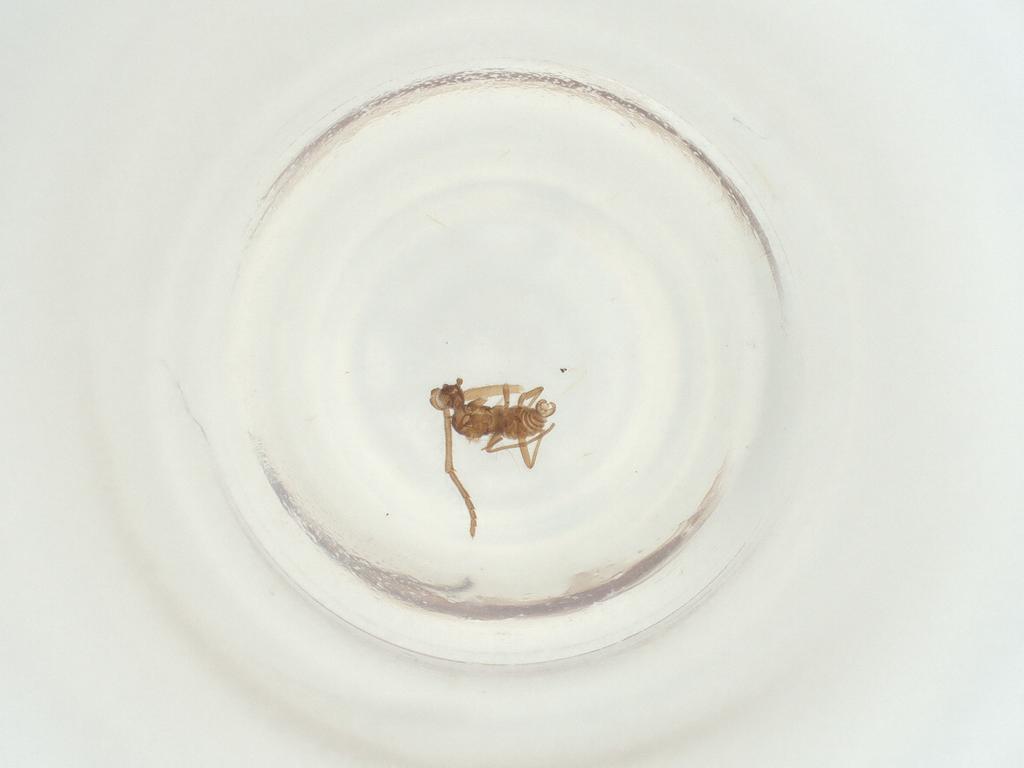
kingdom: Animalia
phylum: Arthropoda
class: Insecta
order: Diptera
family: Sciaridae
